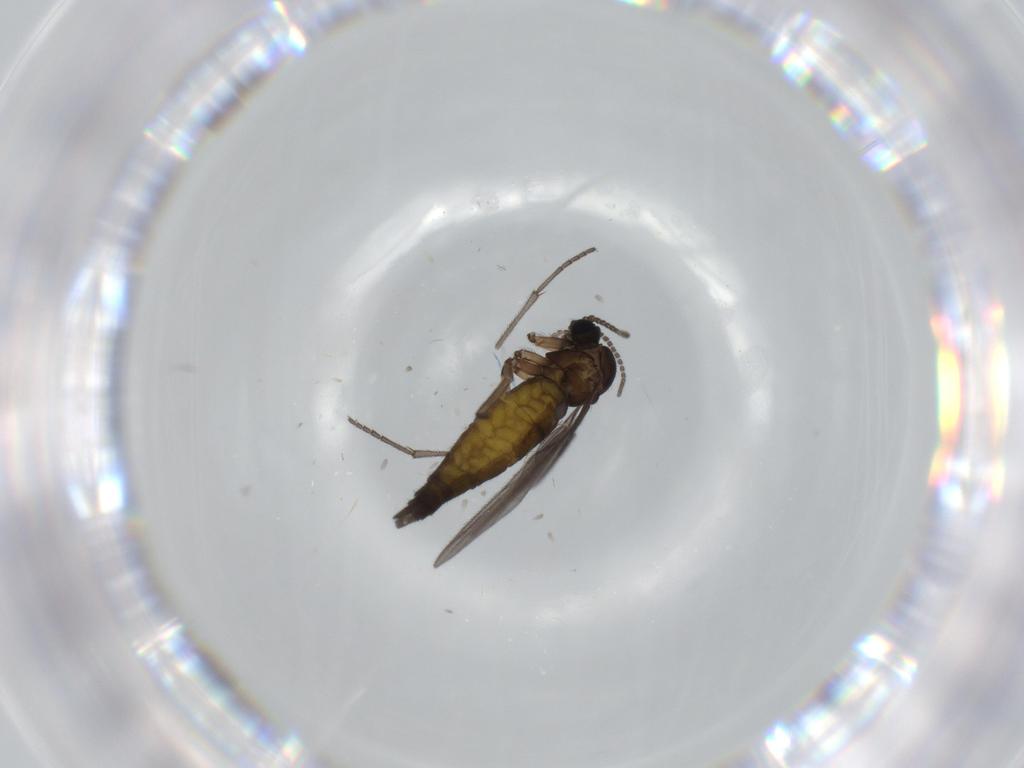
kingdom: Animalia
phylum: Arthropoda
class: Insecta
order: Diptera
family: Sciaridae
